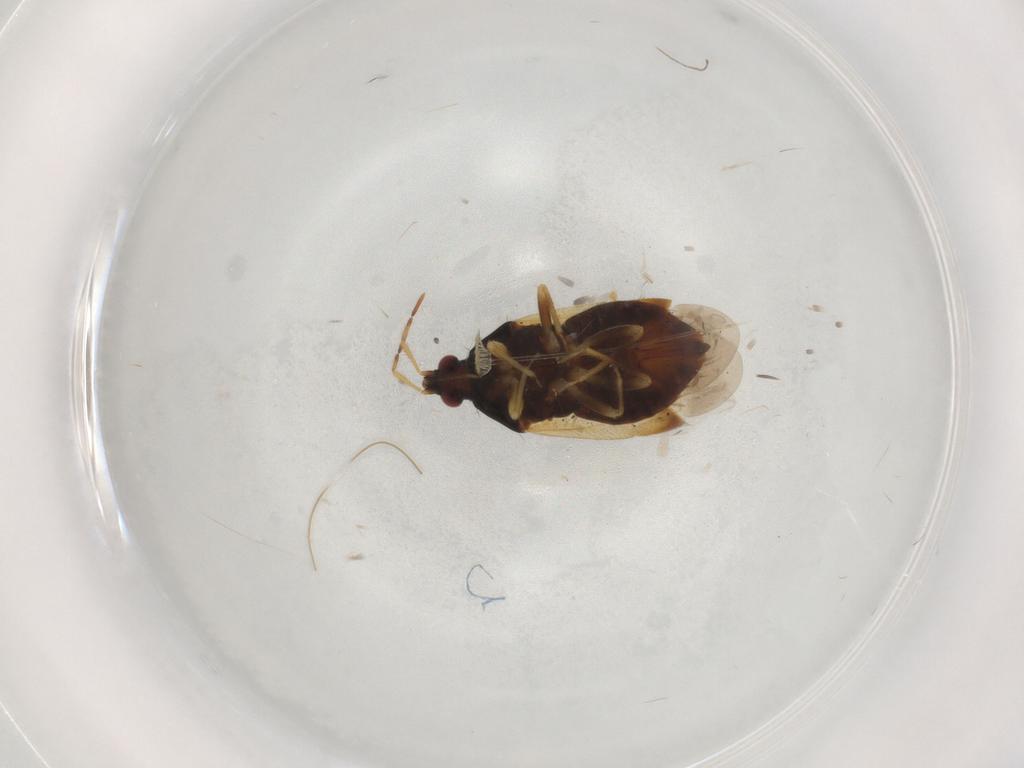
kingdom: Animalia
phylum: Arthropoda
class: Insecta
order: Hemiptera
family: Anthocoridae
